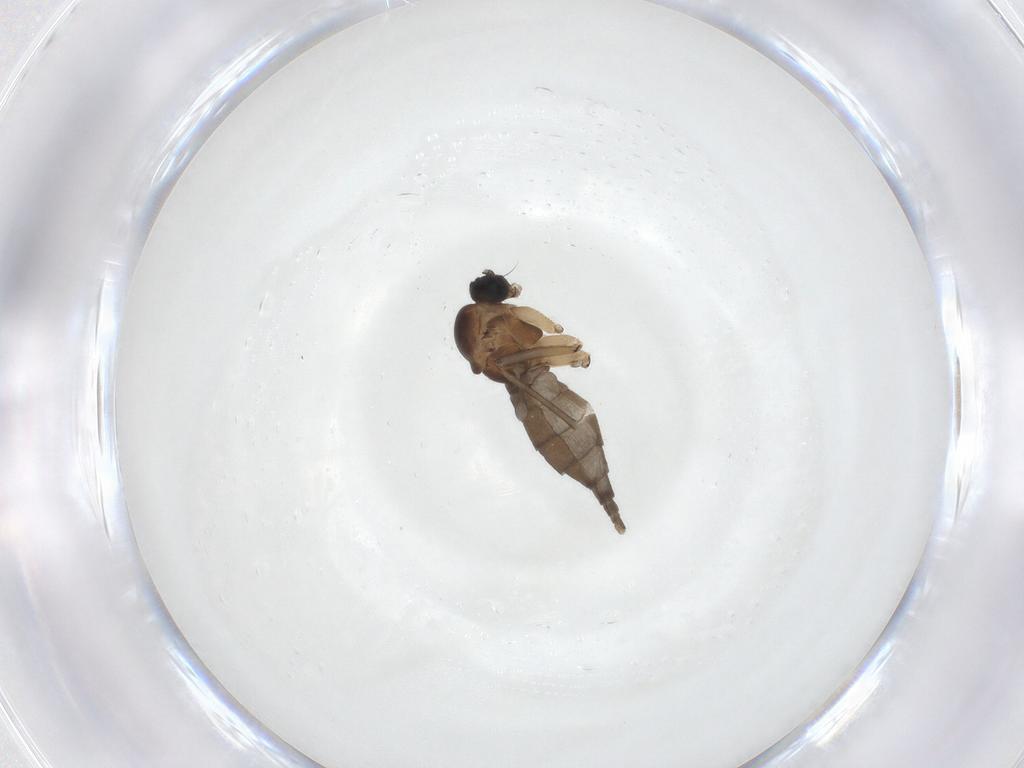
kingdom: Animalia
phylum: Arthropoda
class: Insecta
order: Diptera
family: Sciaridae
